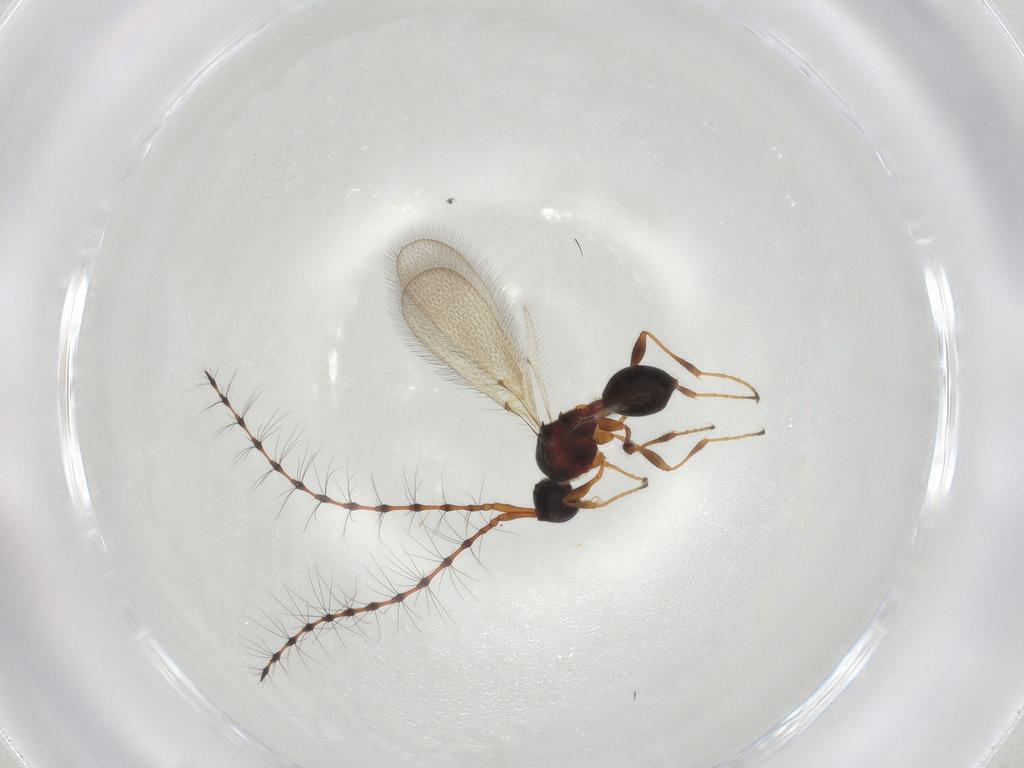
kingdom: Animalia
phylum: Arthropoda
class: Insecta
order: Hymenoptera
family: Diapriidae
